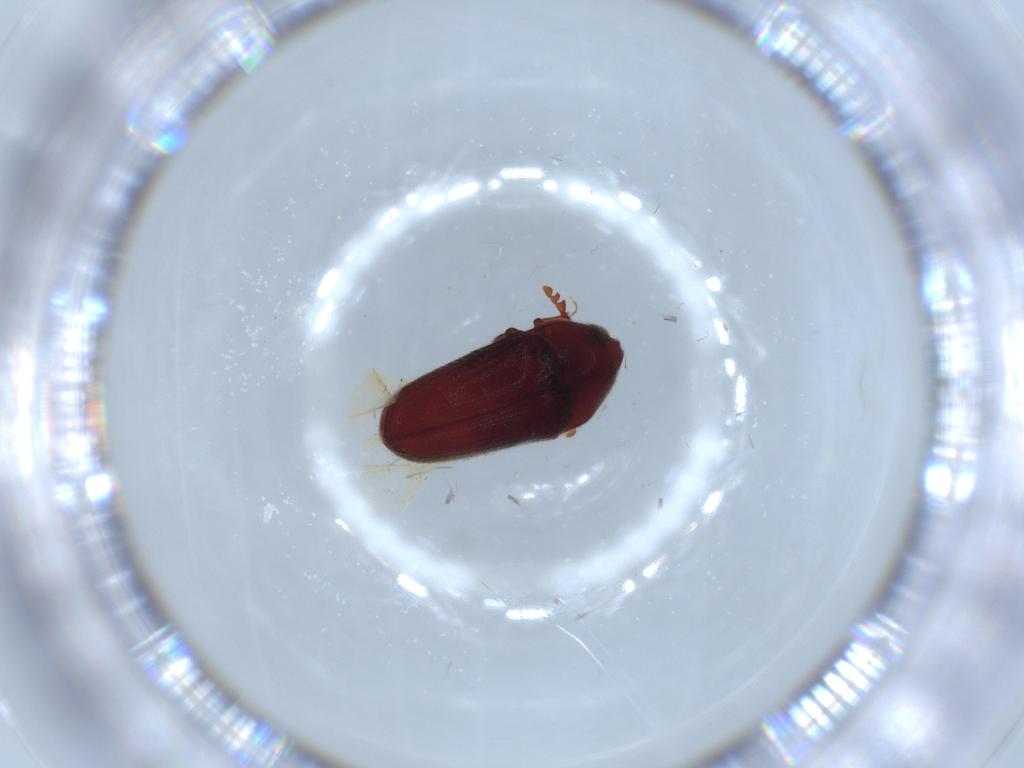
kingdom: Animalia
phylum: Arthropoda
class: Insecta
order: Coleoptera
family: Throscidae
